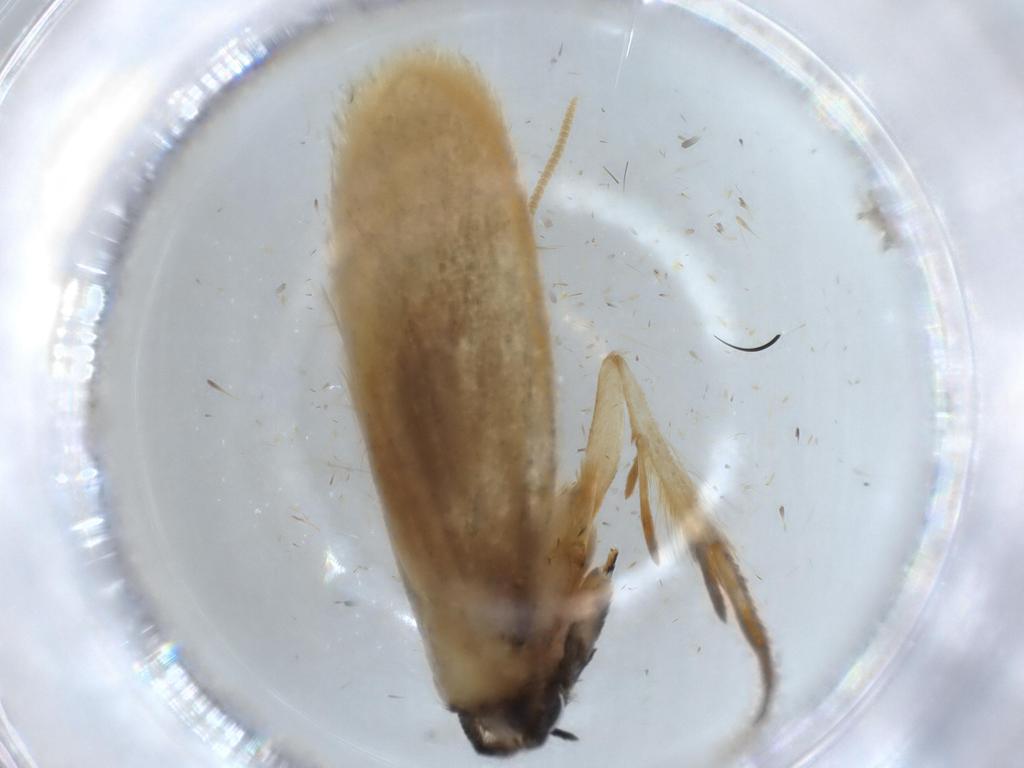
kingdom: Animalia
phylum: Arthropoda
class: Insecta
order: Lepidoptera
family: Tineidae
